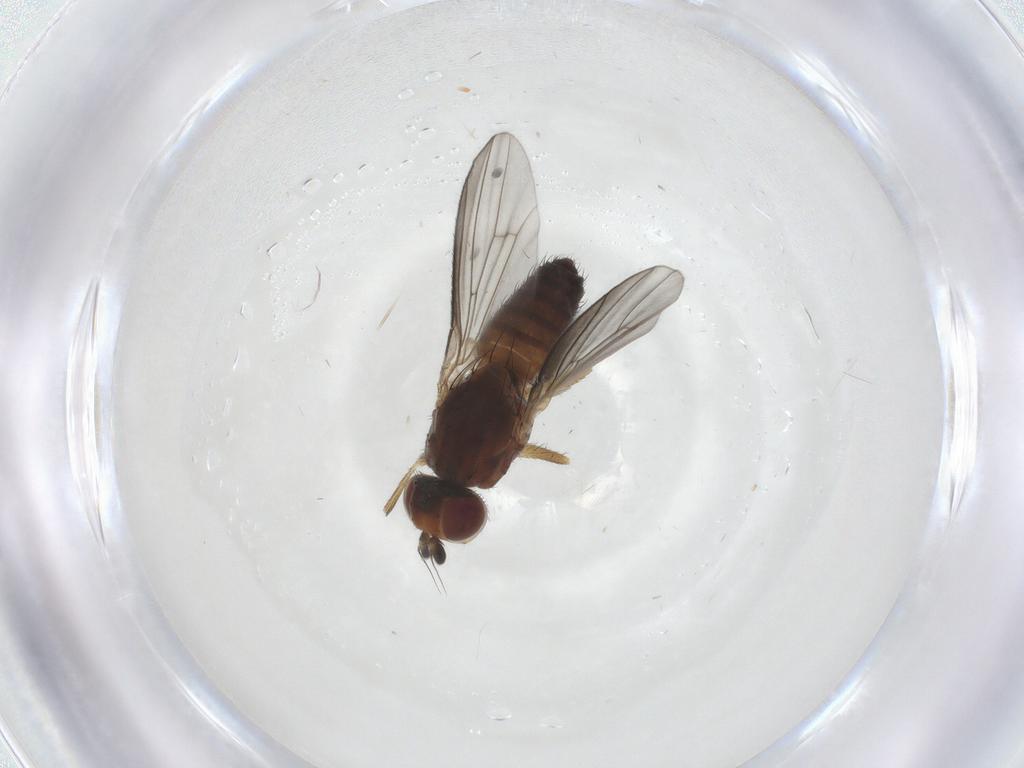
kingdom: Animalia
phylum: Arthropoda
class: Insecta
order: Diptera
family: Heleomyzidae
